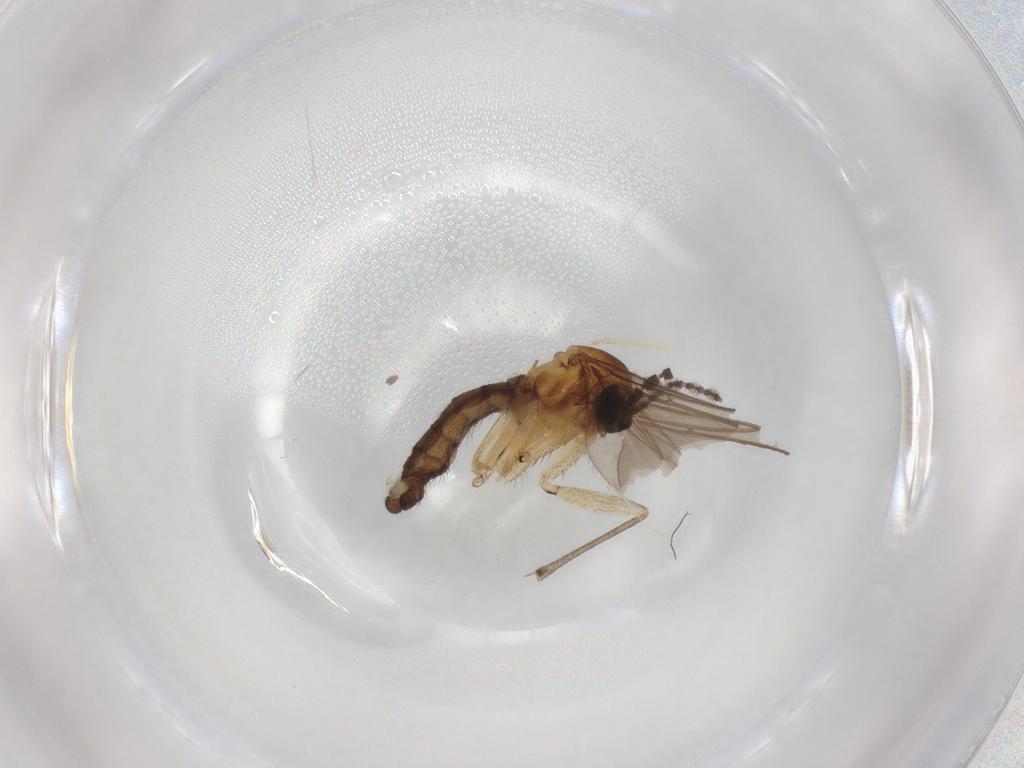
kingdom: Animalia
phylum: Arthropoda
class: Insecta
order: Diptera
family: Sciaridae
